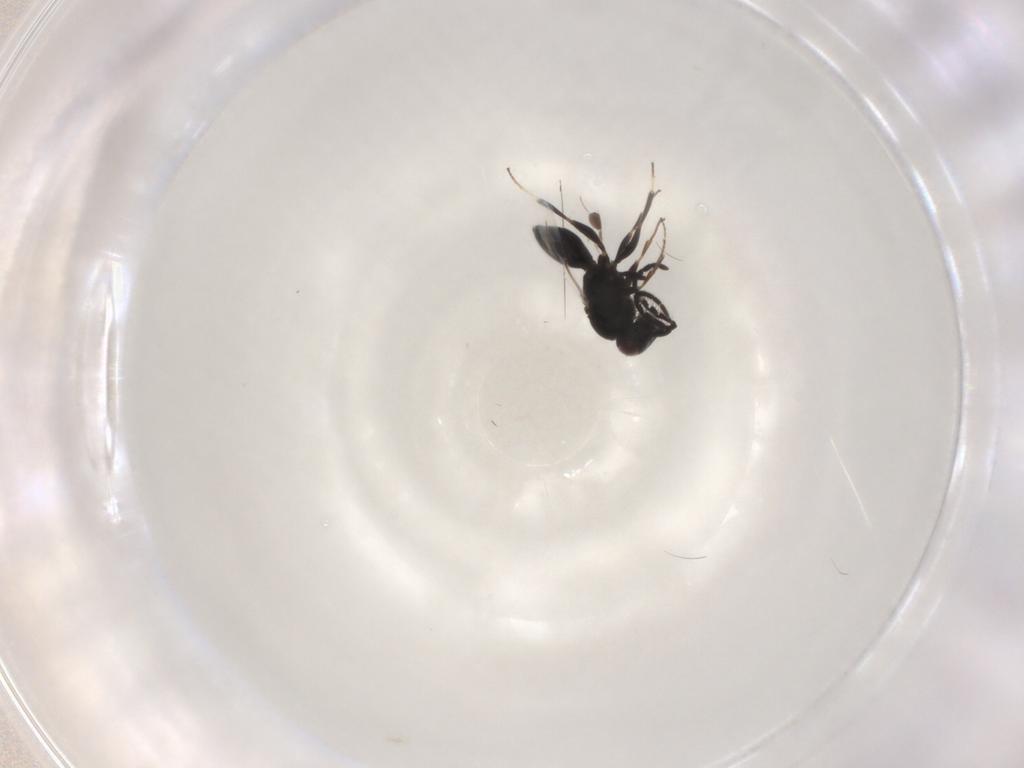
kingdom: Animalia
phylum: Arthropoda
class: Insecta
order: Hymenoptera
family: Megaspilidae
